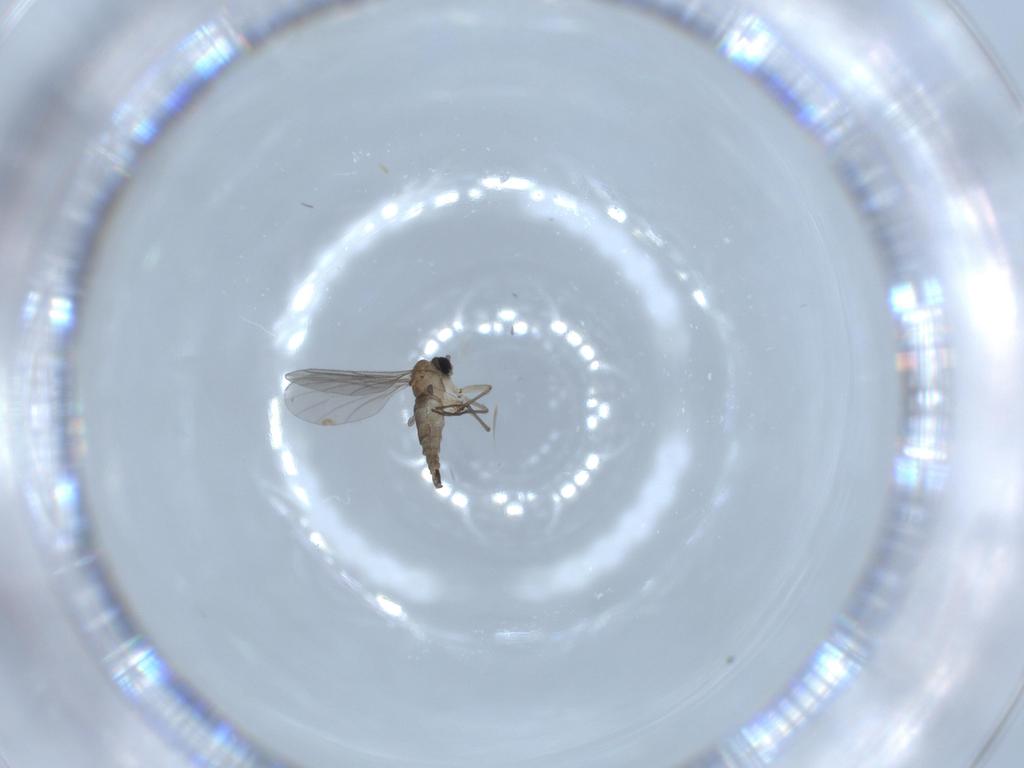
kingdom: Animalia
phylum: Arthropoda
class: Insecta
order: Diptera
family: Sciaridae
